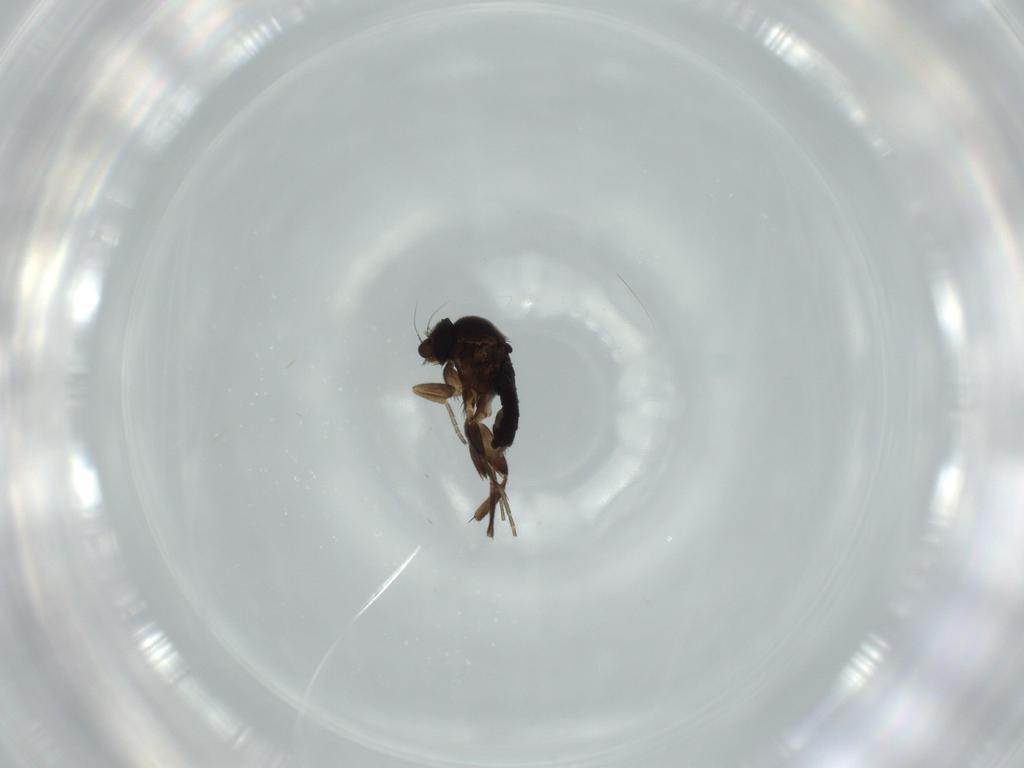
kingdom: Animalia
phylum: Arthropoda
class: Insecta
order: Diptera
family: Phoridae
